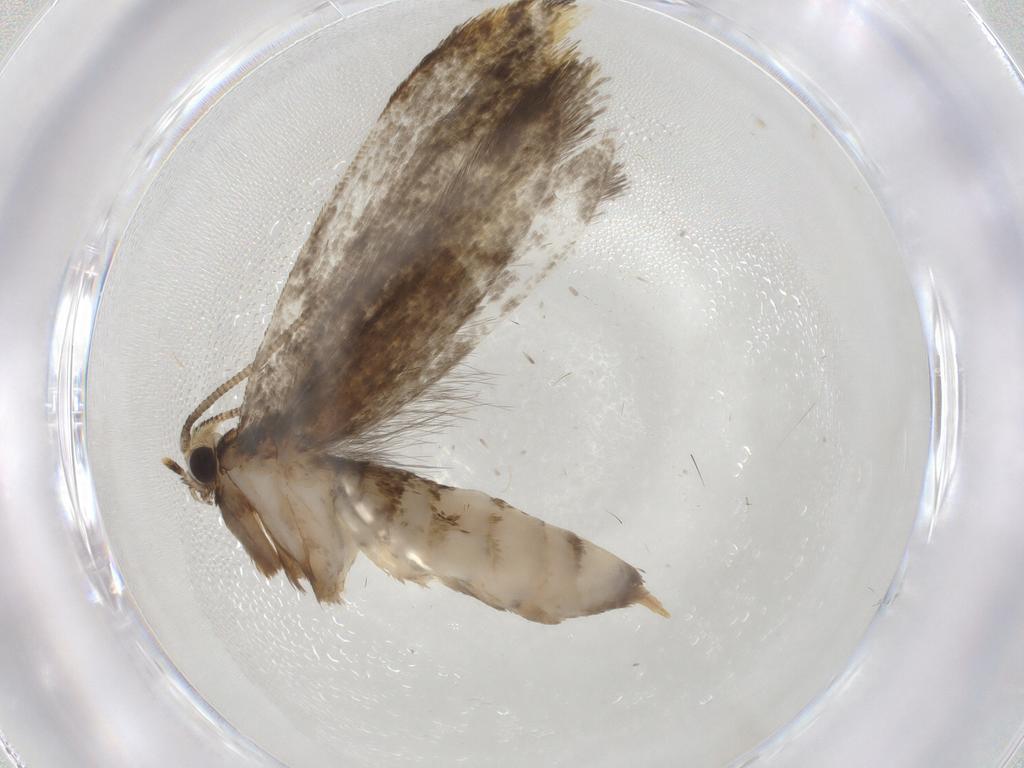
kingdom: Animalia
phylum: Arthropoda
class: Insecta
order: Lepidoptera
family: Tineidae
